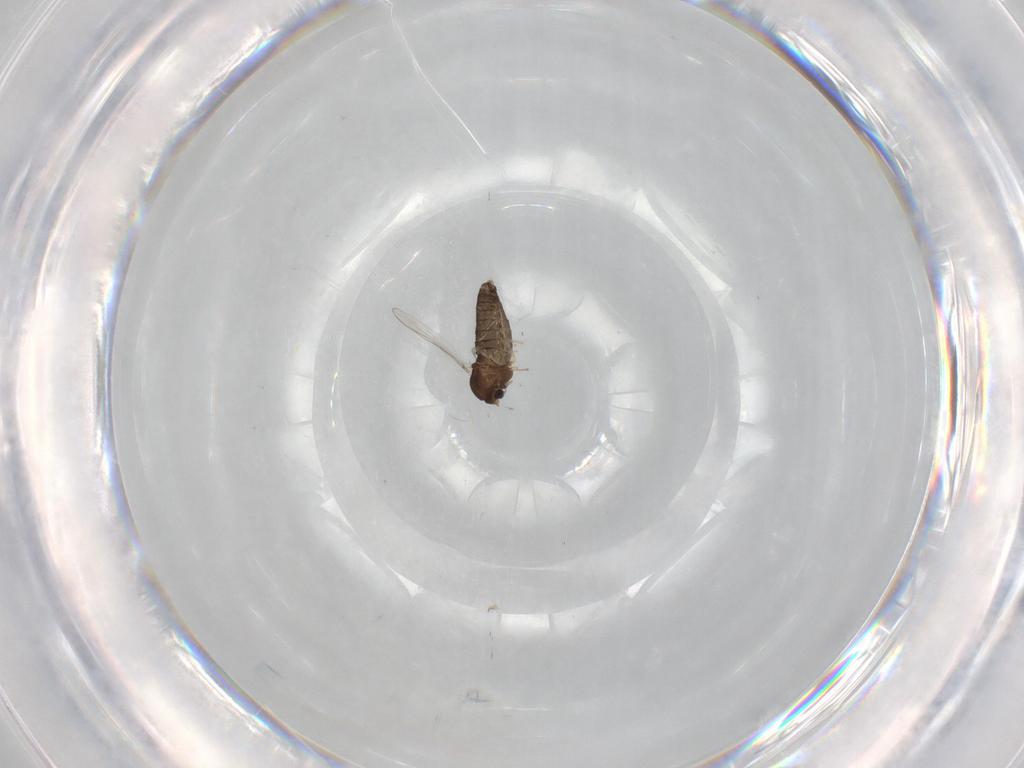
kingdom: Animalia
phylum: Arthropoda
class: Insecta
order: Diptera
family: Chironomidae
